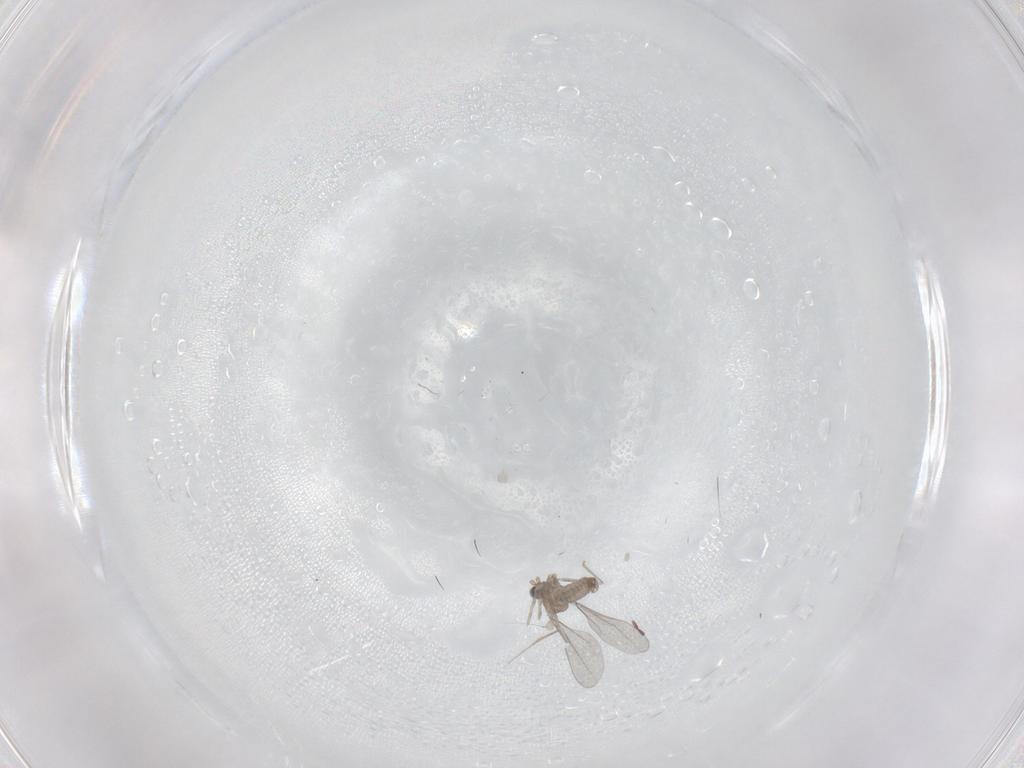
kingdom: Animalia
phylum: Arthropoda
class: Insecta
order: Diptera
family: Cecidomyiidae
